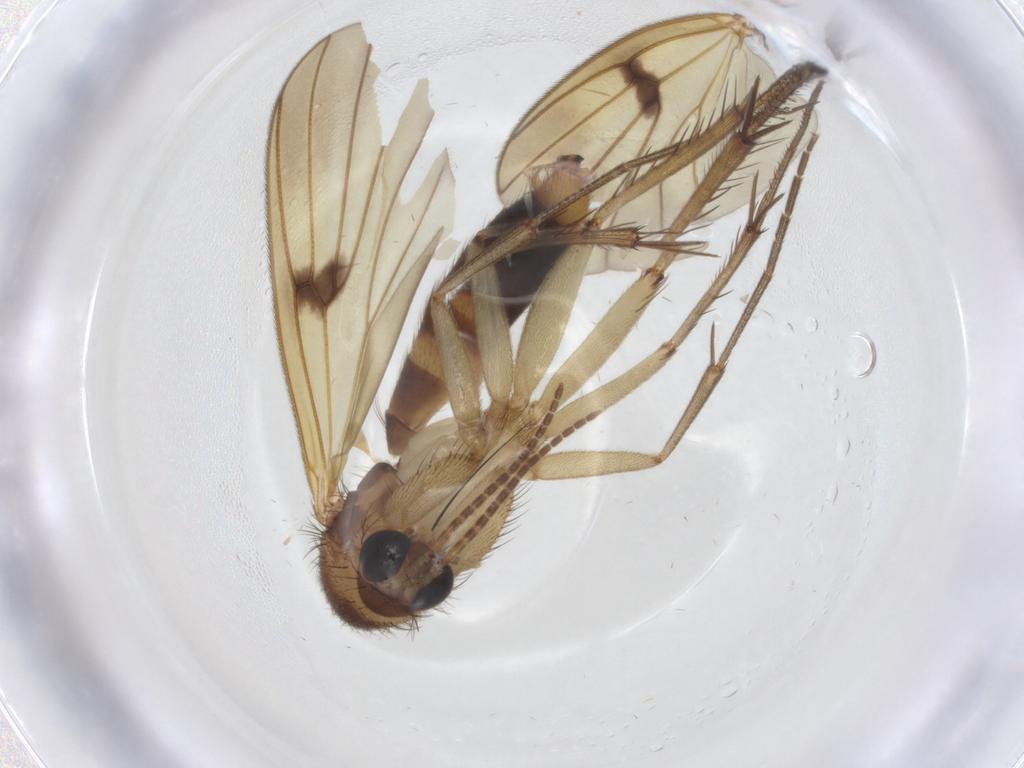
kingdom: Animalia
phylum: Arthropoda
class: Insecta
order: Diptera
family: Mycetophilidae
